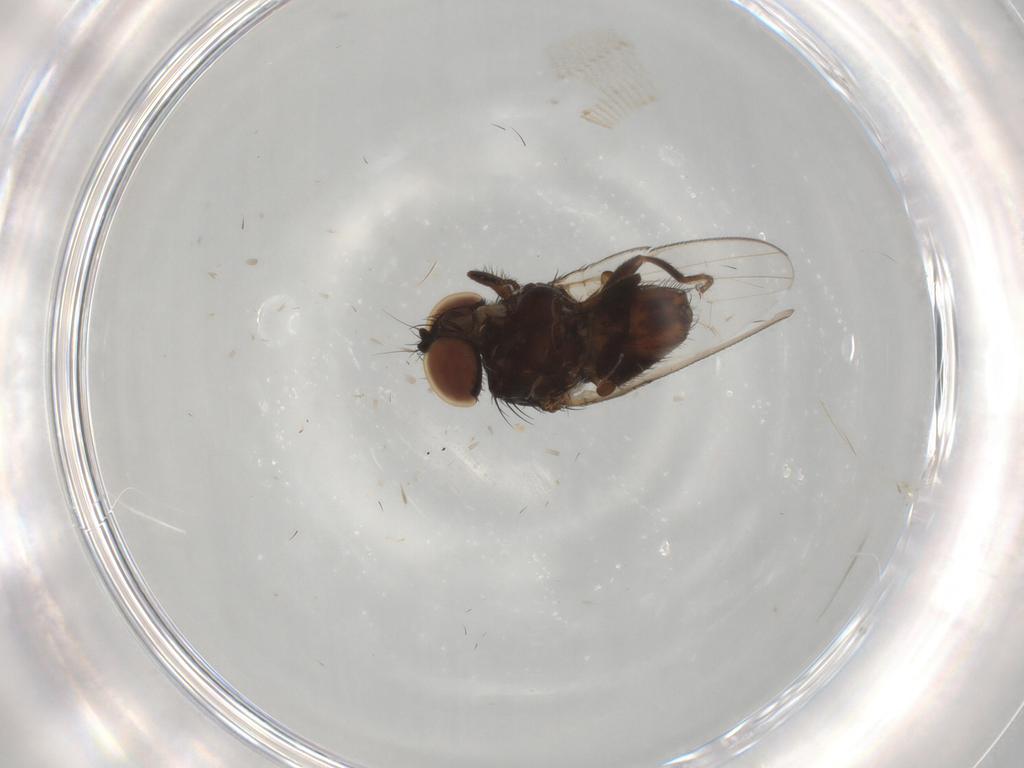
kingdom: Animalia
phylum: Arthropoda
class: Insecta
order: Diptera
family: Milichiidae
